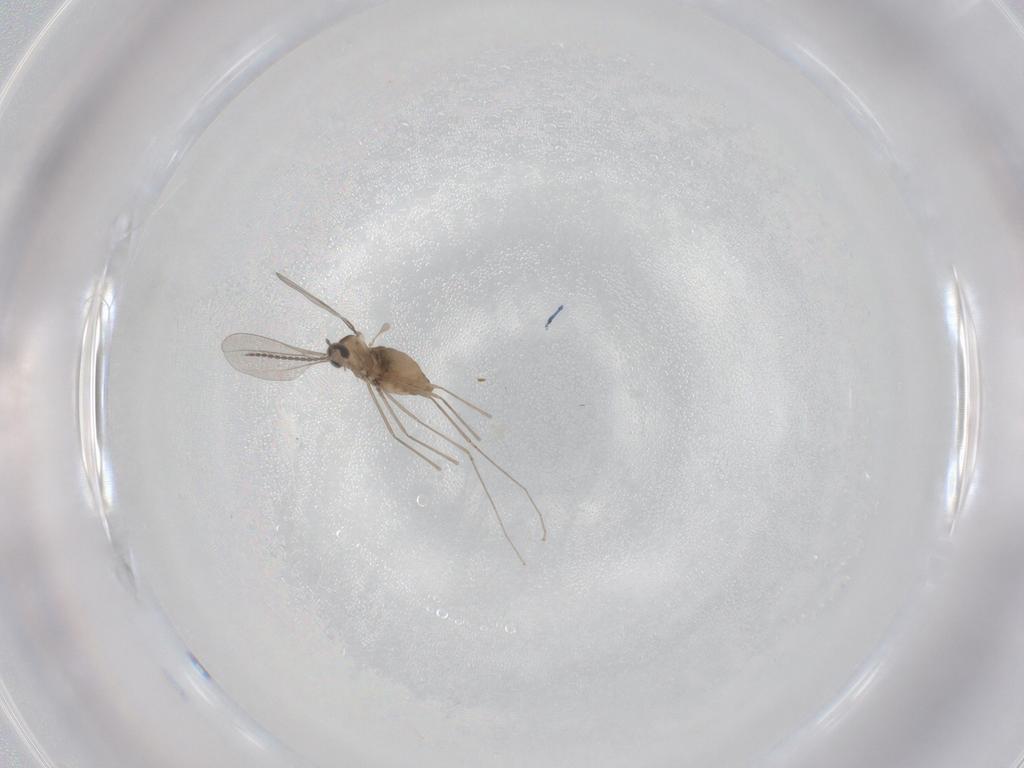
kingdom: Animalia
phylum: Arthropoda
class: Insecta
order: Diptera
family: Cecidomyiidae
